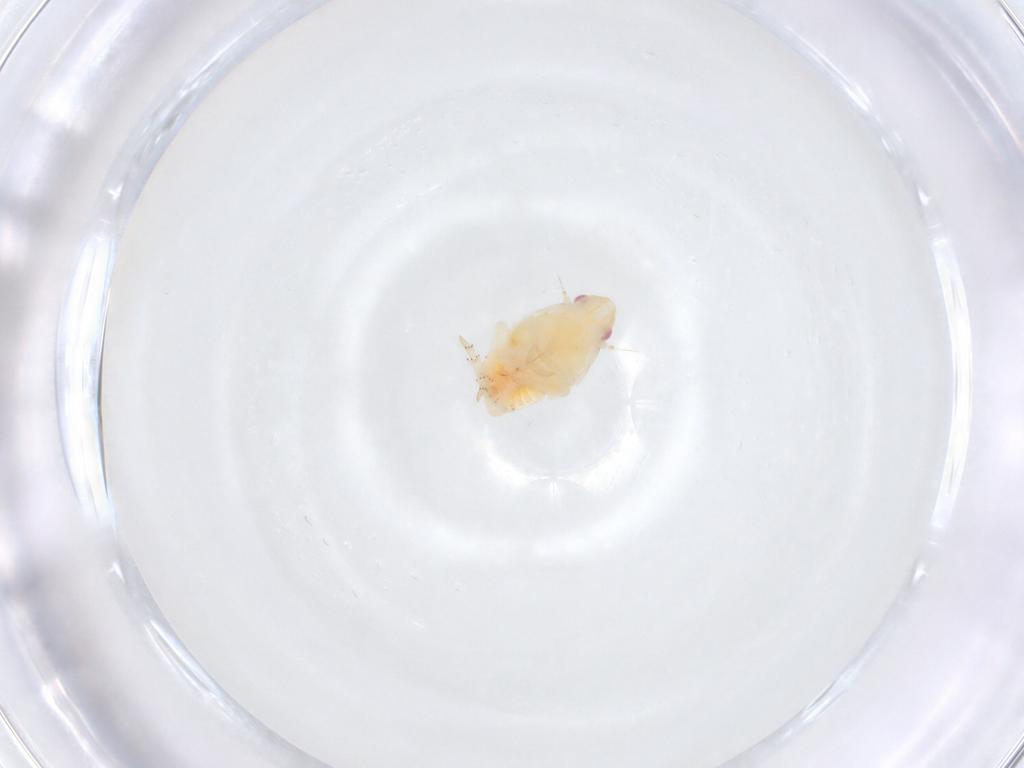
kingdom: Animalia
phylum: Arthropoda
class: Insecta
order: Hemiptera
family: Flatidae
